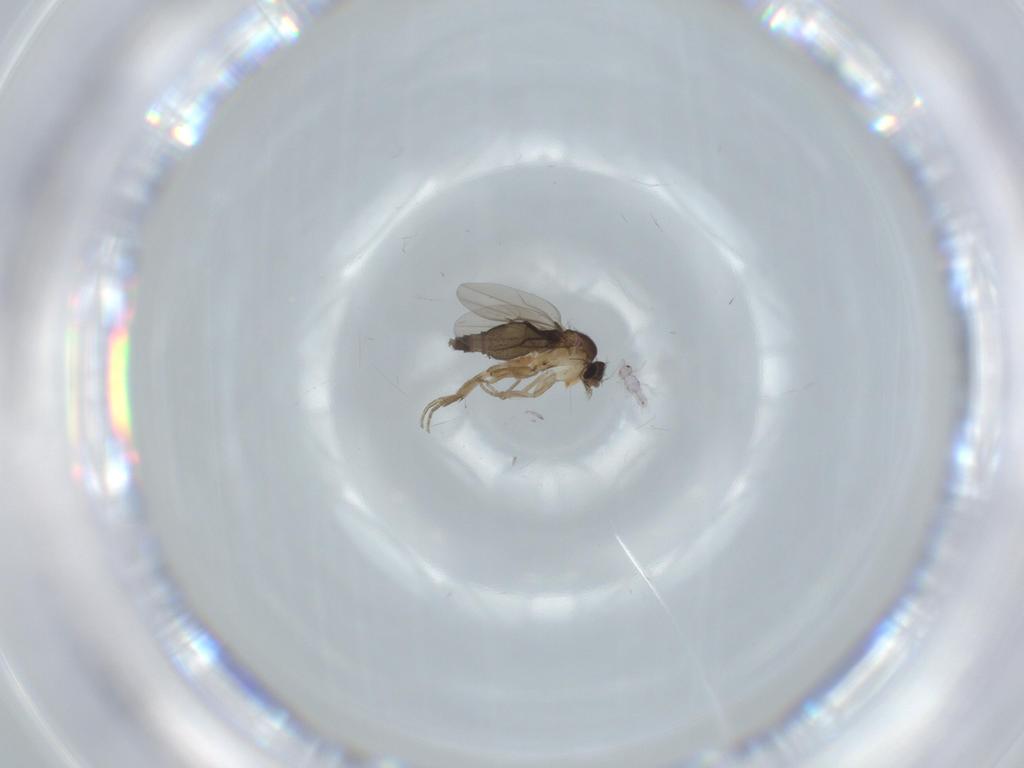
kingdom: Animalia
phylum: Arthropoda
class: Insecta
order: Diptera
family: Phoridae
